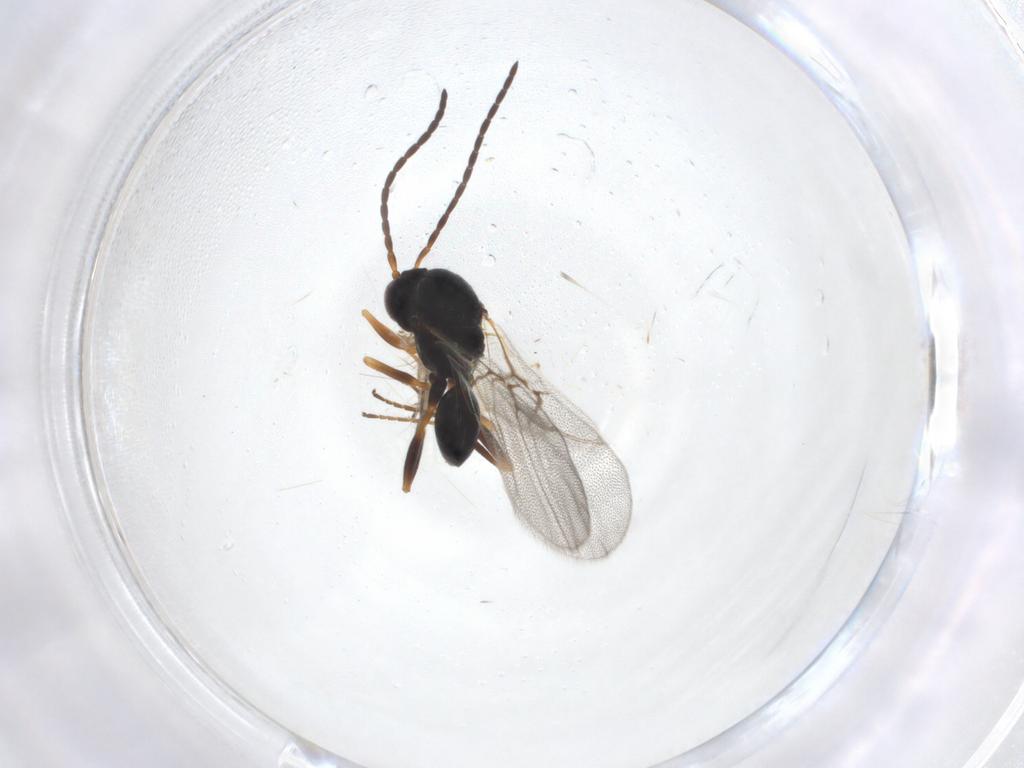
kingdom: Animalia
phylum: Arthropoda
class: Insecta
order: Hymenoptera
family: Cynipidae
